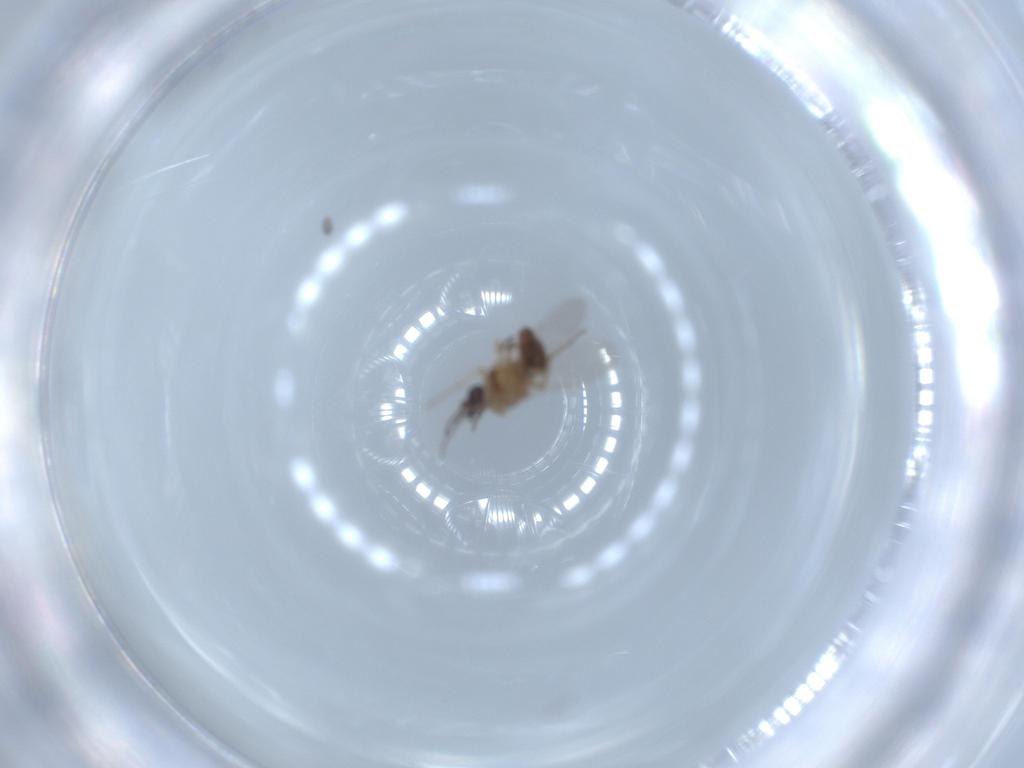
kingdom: Animalia
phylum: Arthropoda
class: Insecta
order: Diptera
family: Ceratopogonidae
